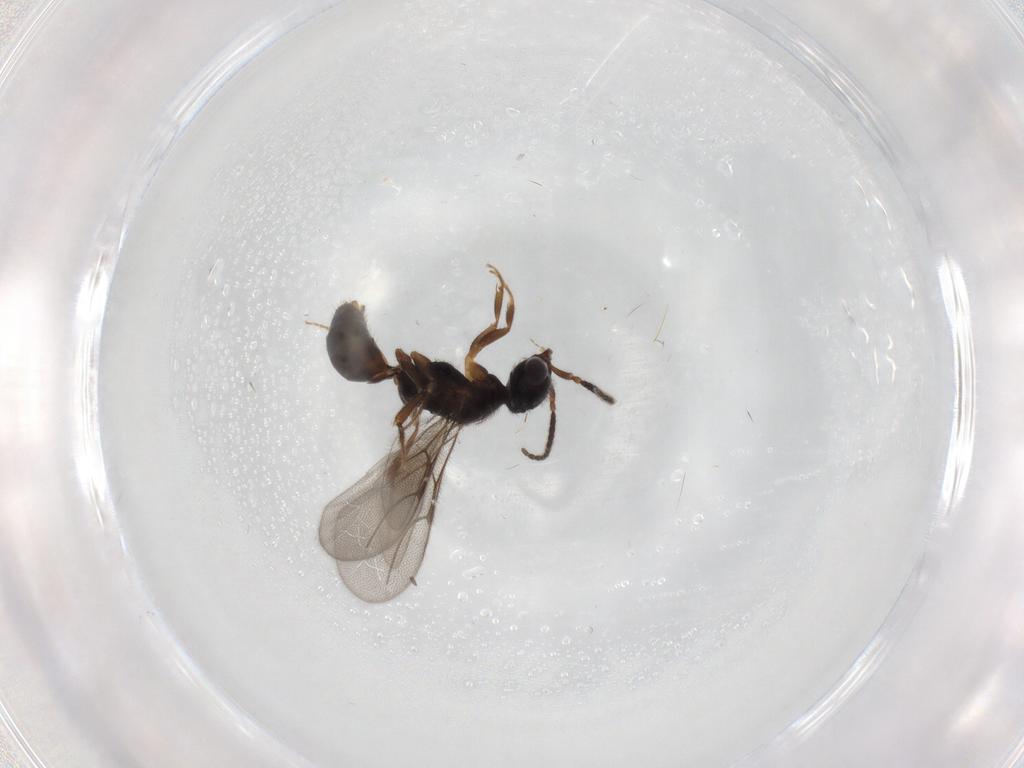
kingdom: Animalia
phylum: Arthropoda
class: Insecta
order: Hymenoptera
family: Bethylidae
